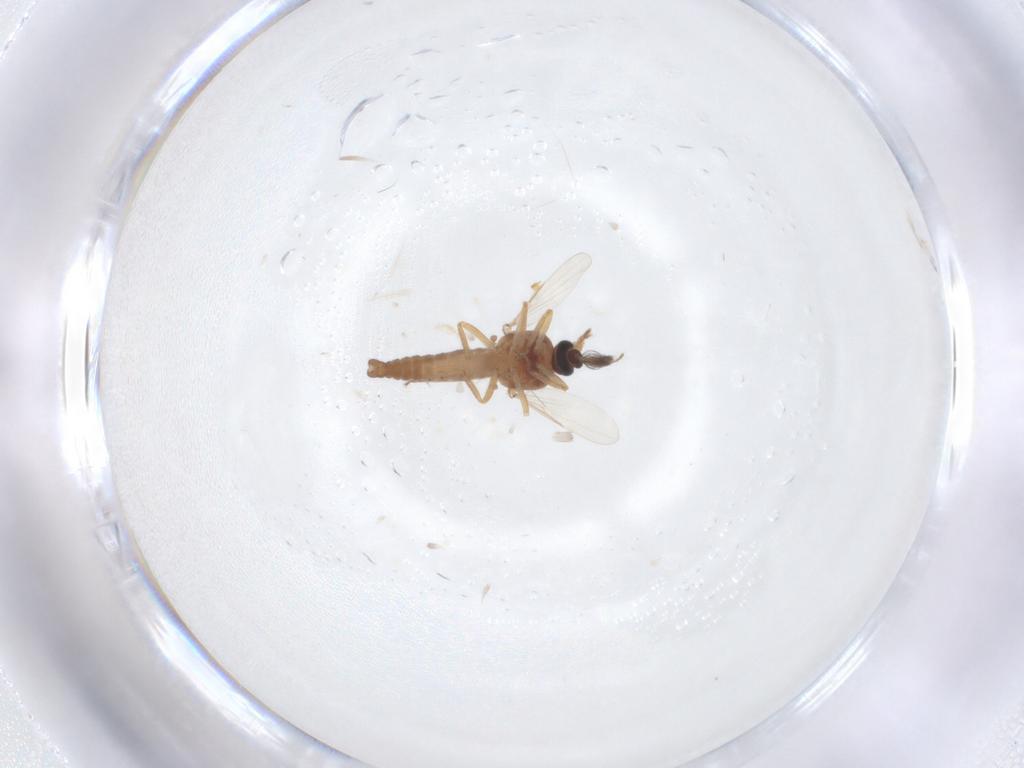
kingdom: Animalia
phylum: Arthropoda
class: Insecta
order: Diptera
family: Ceratopogonidae
